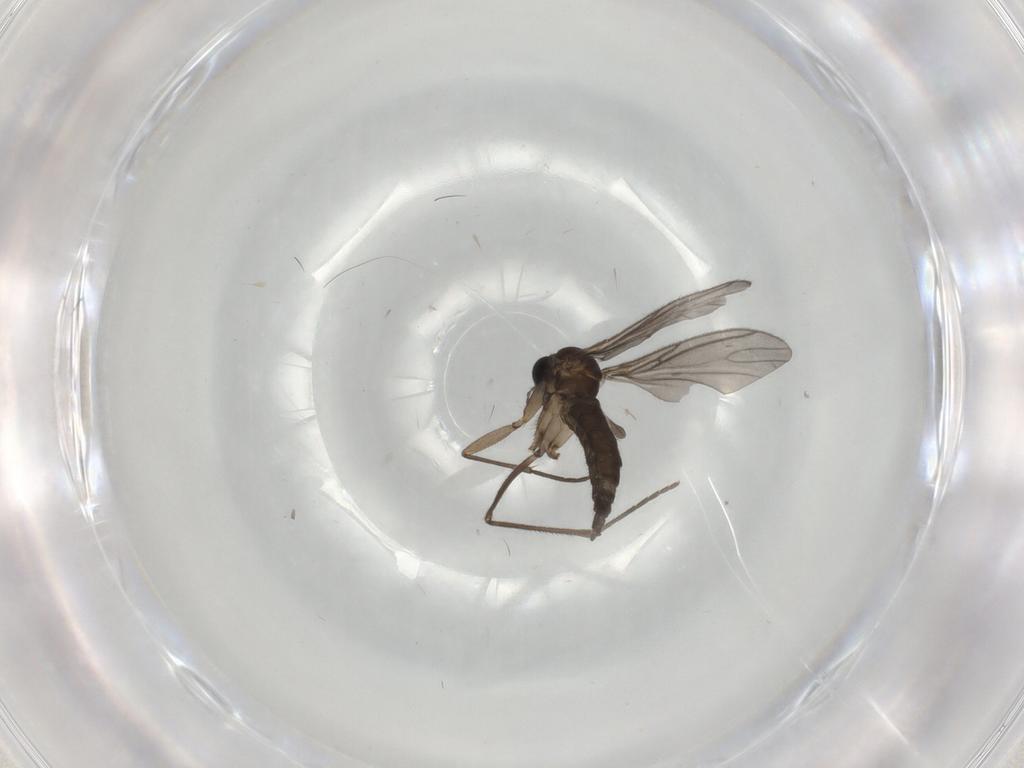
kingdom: Animalia
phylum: Arthropoda
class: Insecta
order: Diptera
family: Sciaridae
